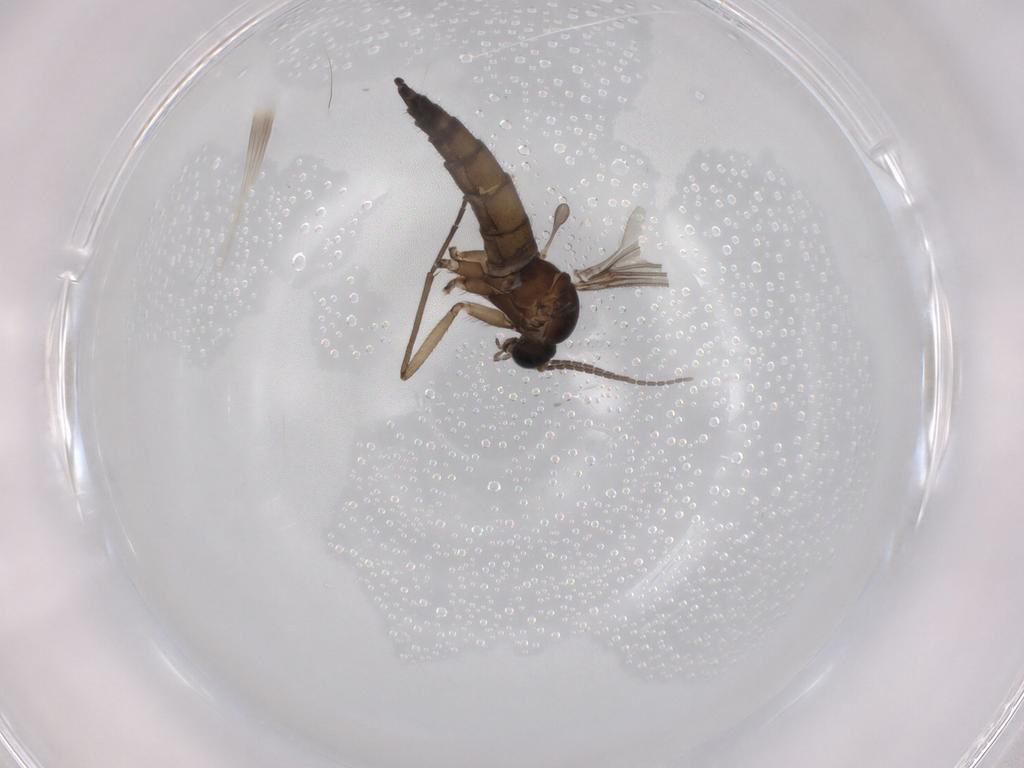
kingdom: Animalia
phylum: Arthropoda
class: Insecta
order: Diptera
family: Sciaridae
